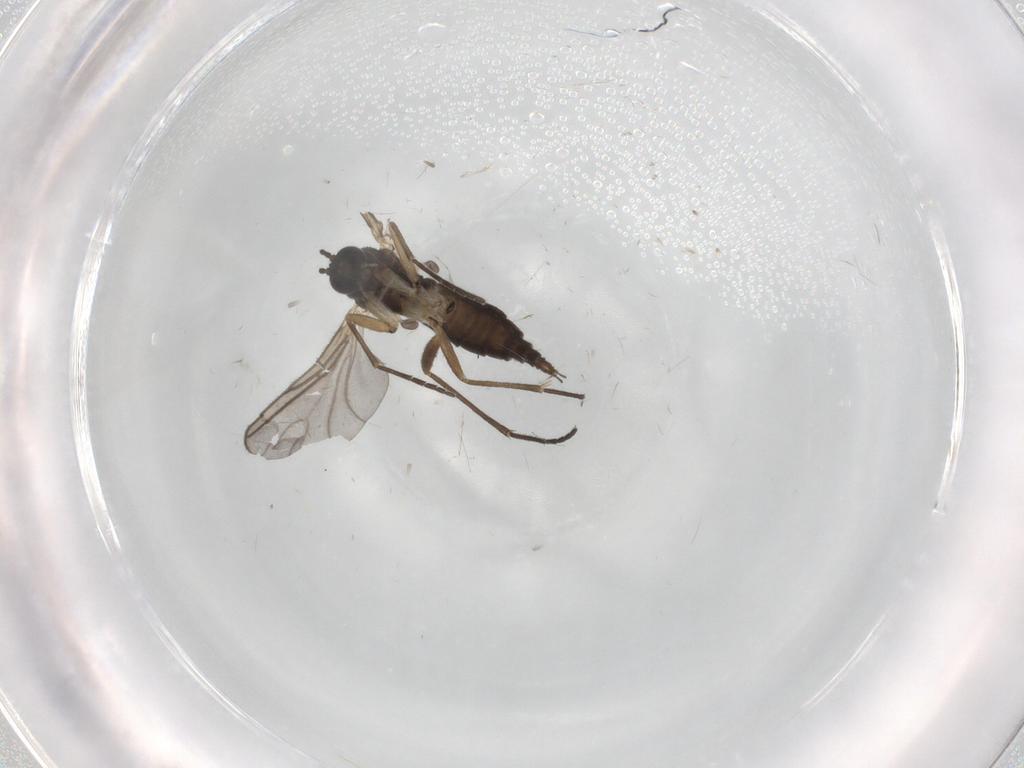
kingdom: Animalia
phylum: Arthropoda
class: Insecta
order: Diptera
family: Sciaridae
